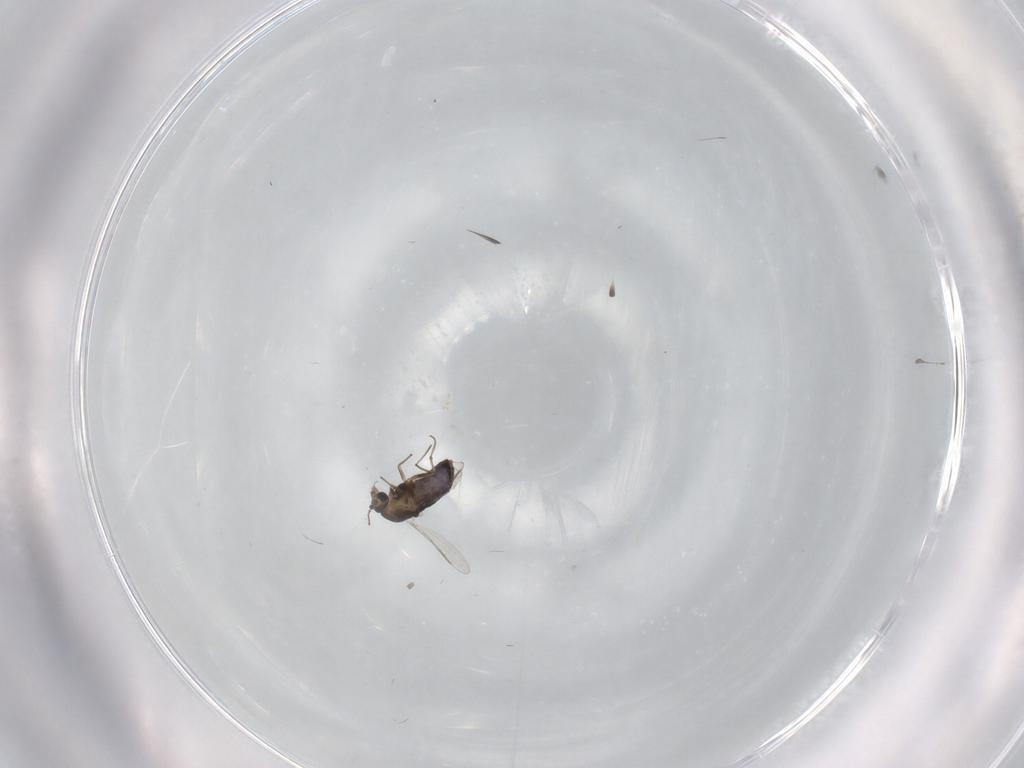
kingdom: Animalia
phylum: Arthropoda
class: Insecta
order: Diptera
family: Chironomidae
